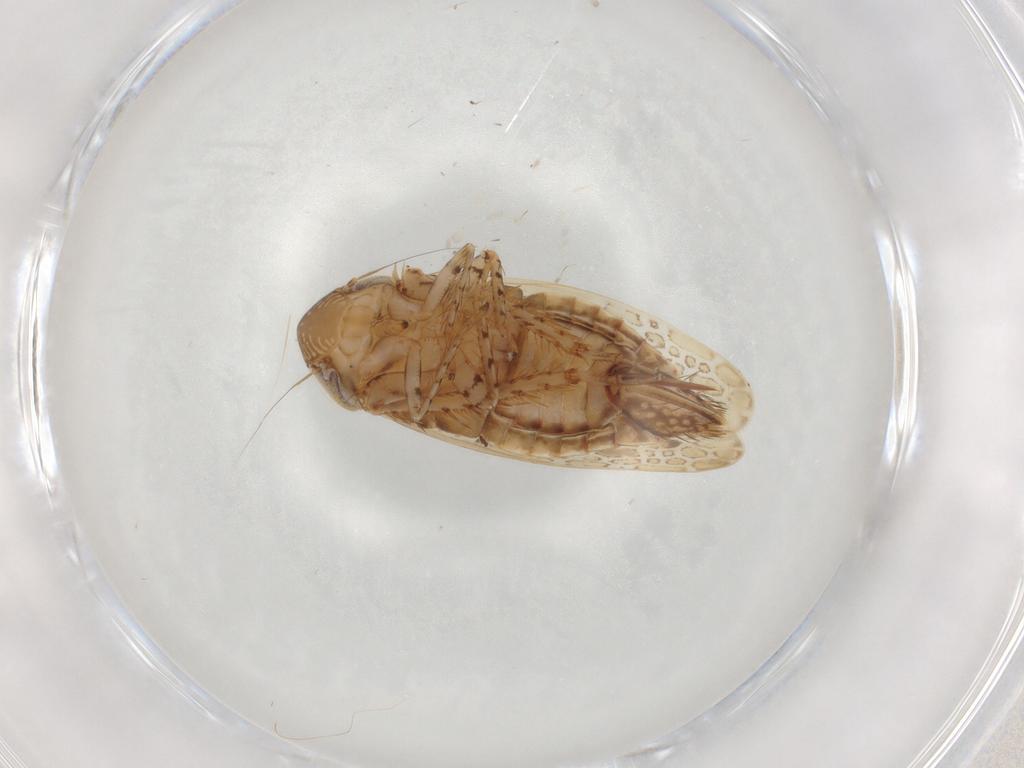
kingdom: Animalia
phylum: Arthropoda
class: Insecta
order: Hemiptera
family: Cicadellidae
